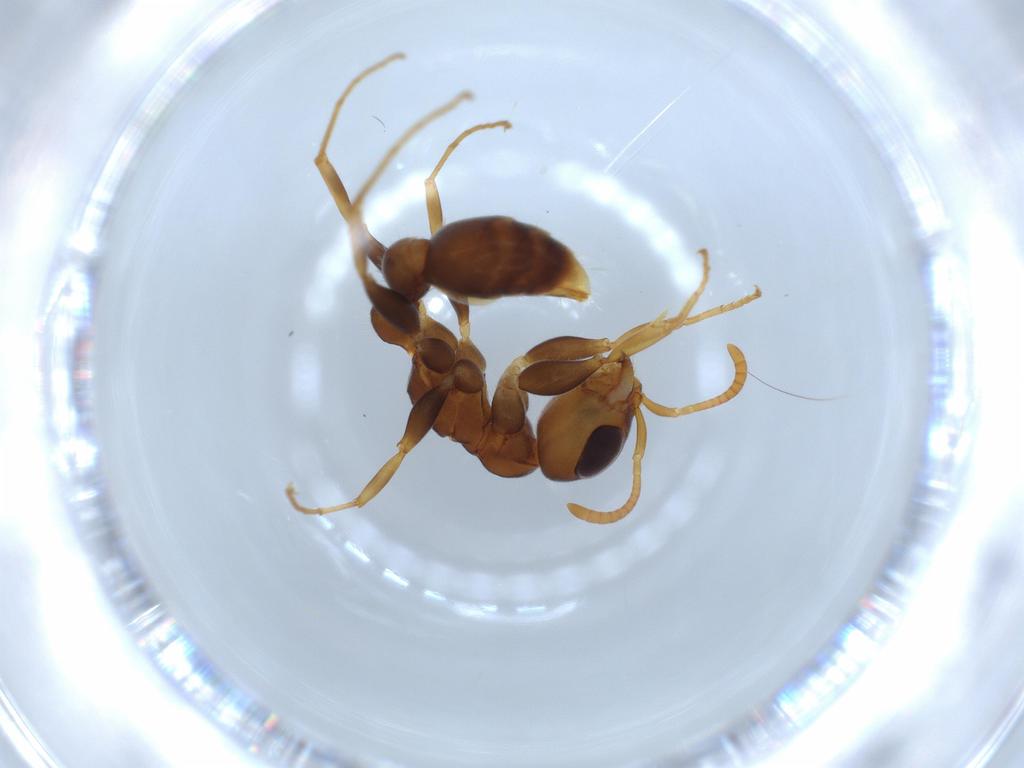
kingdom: Animalia
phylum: Arthropoda
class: Insecta
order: Hymenoptera
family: Formicidae
